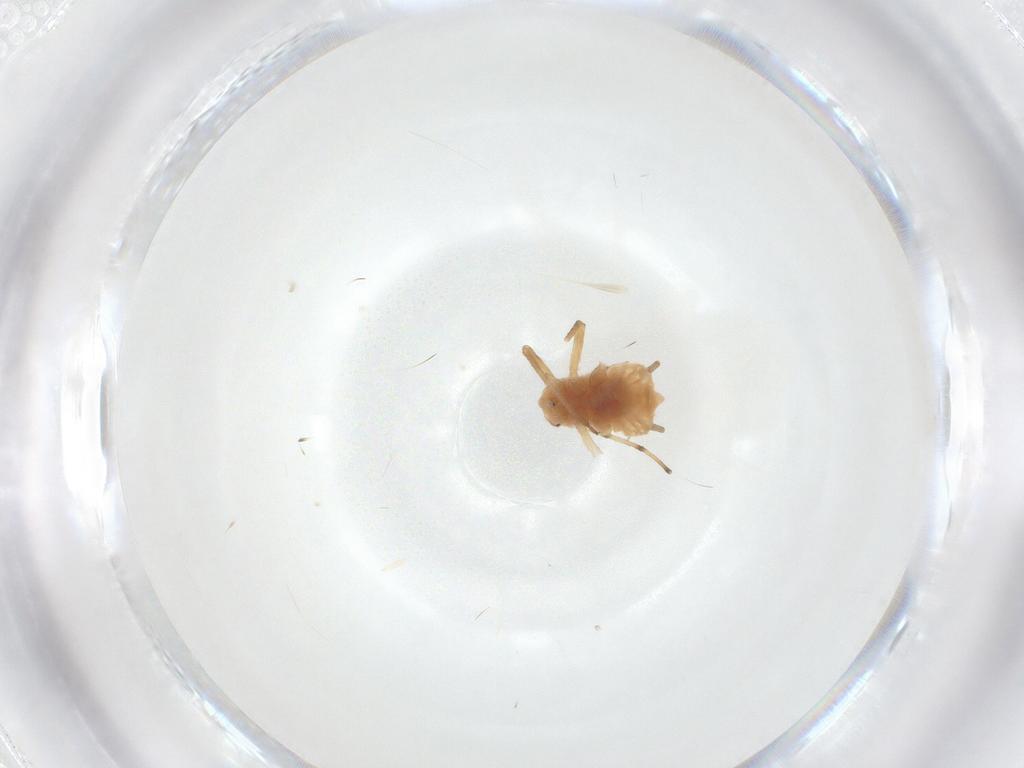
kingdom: Animalia
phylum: Arthropoda
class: Insecta
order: Hemiptera
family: Aphididae
